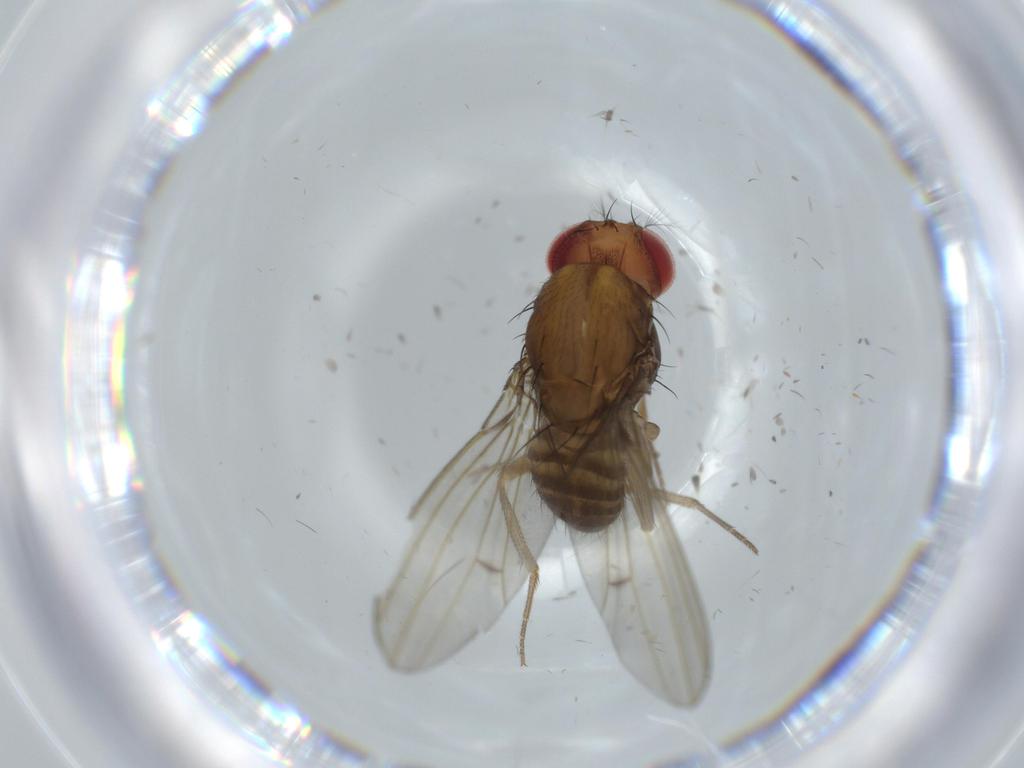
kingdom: Animalia
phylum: Arthropoda
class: Insecta
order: Diptera
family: Drosophilidae
